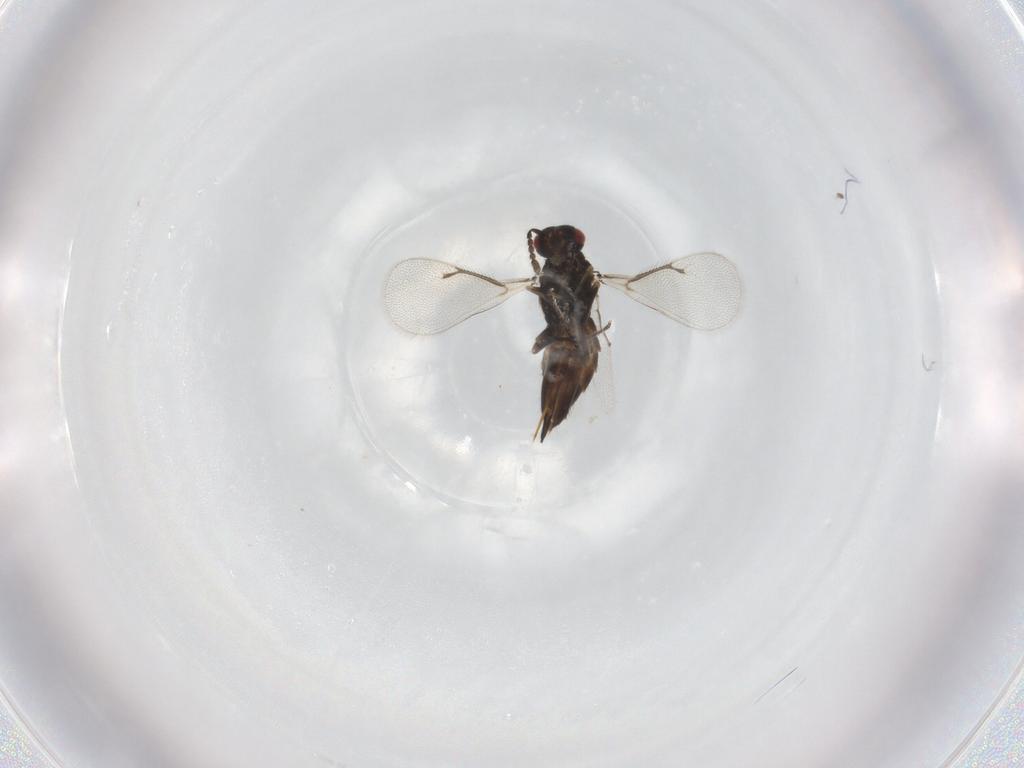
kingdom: Animalia
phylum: Arthropoda
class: Insecta
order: Hymenoptera
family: Eulophidae
